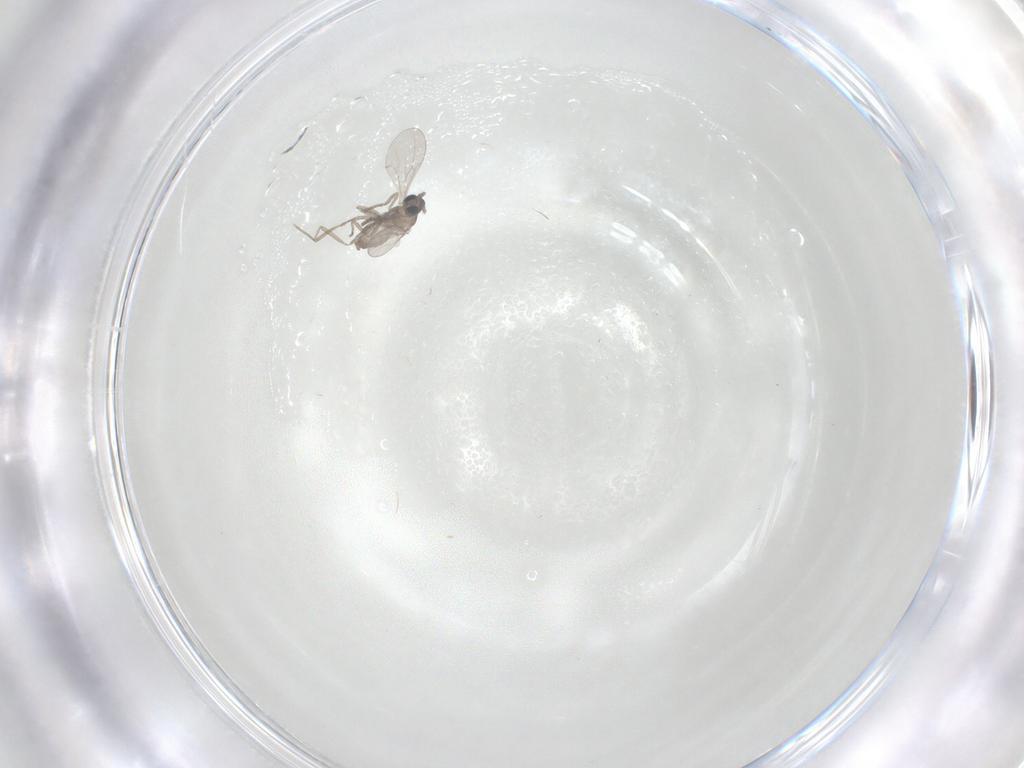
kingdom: Animalia
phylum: Arthropoda
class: Insecta
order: Diptera
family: Cecidomyiidae
